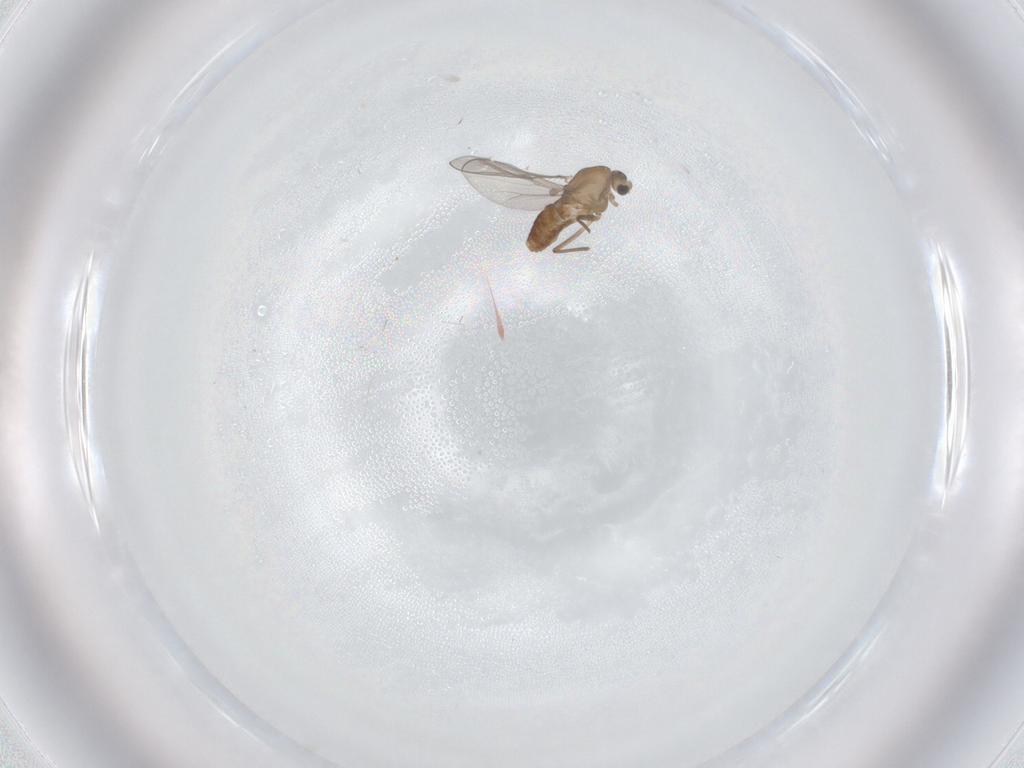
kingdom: Animalia
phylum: Arthropoda
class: Insecta
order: Diptera
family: Chironomidae
